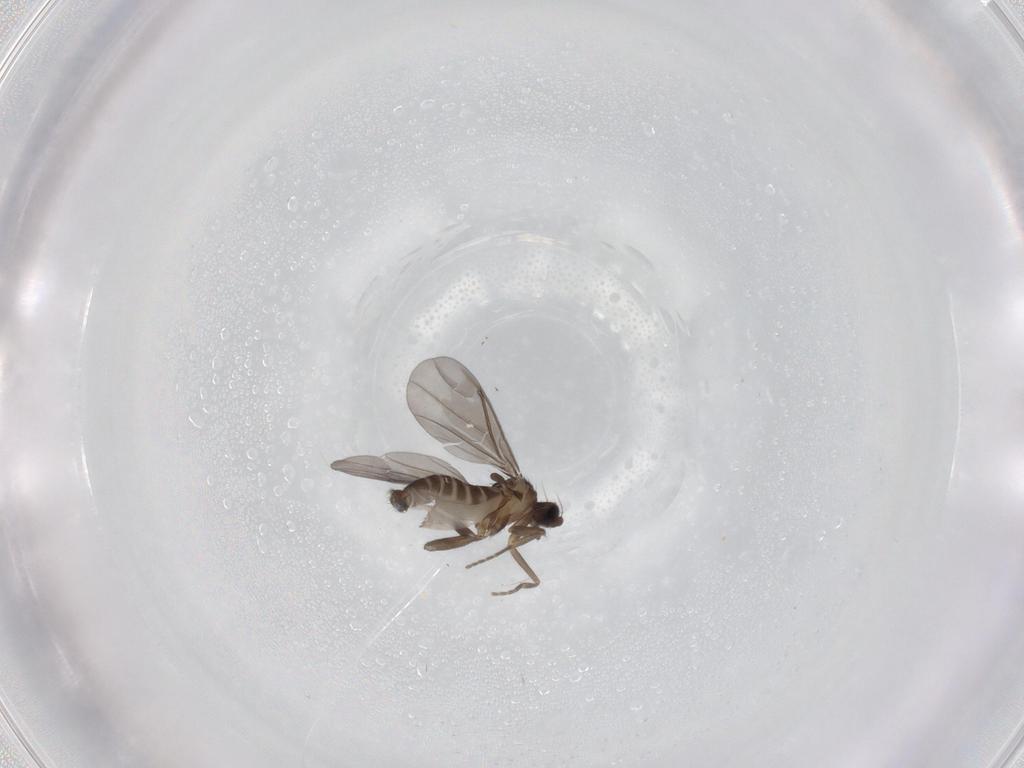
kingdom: Animalia
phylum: Arthropoda
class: Insecta
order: Diptera
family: Phoridae
